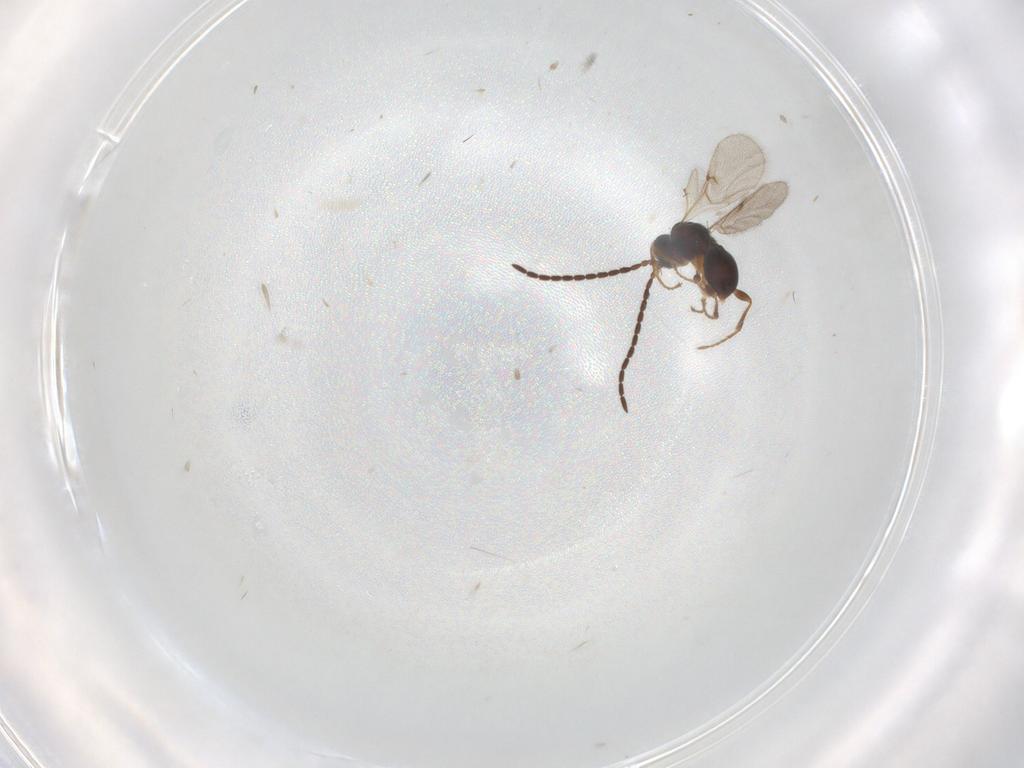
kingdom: Animalia
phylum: Arthropoda
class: Insecta
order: Hymenoptera
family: Diapriidae
